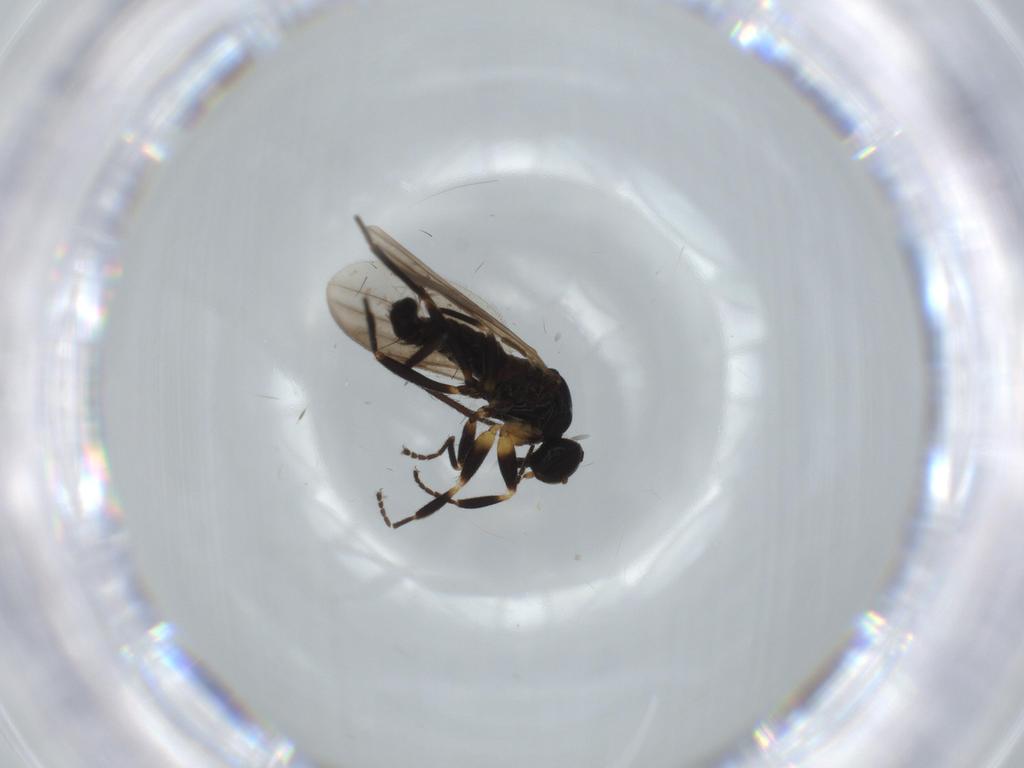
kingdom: Animalia
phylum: Arthropoda
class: Insecta
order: Diptera
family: Hybotidae
